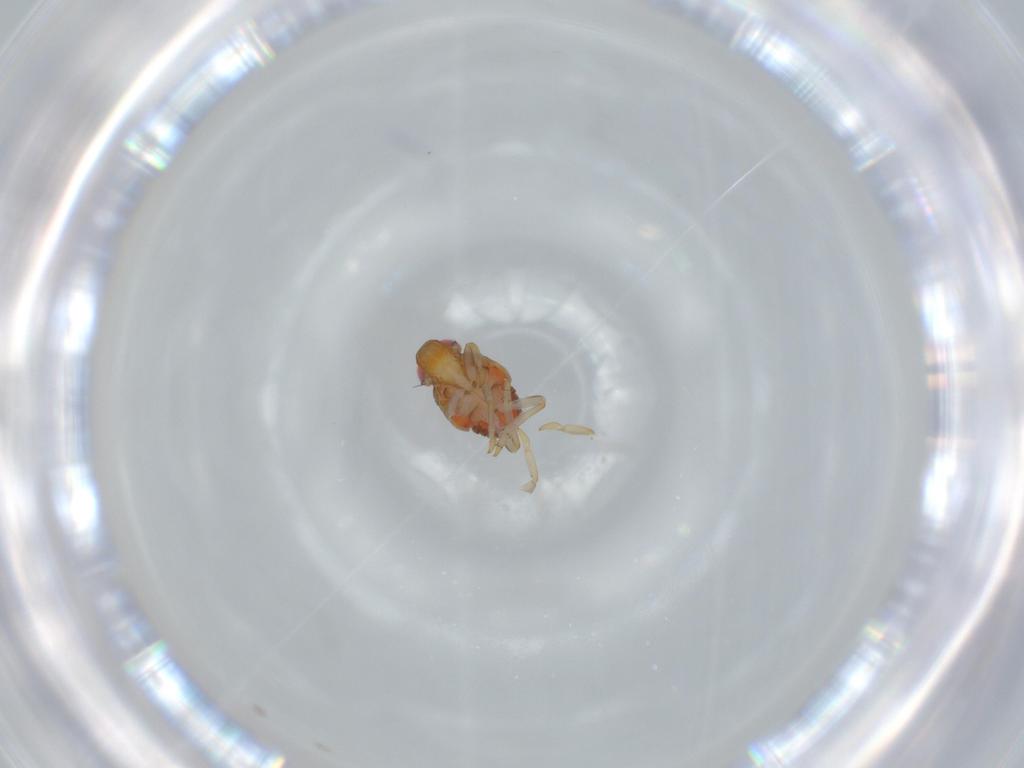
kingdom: Animalia
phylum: Arthropoda
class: Insecta
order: Hemiptera
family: Issidae
